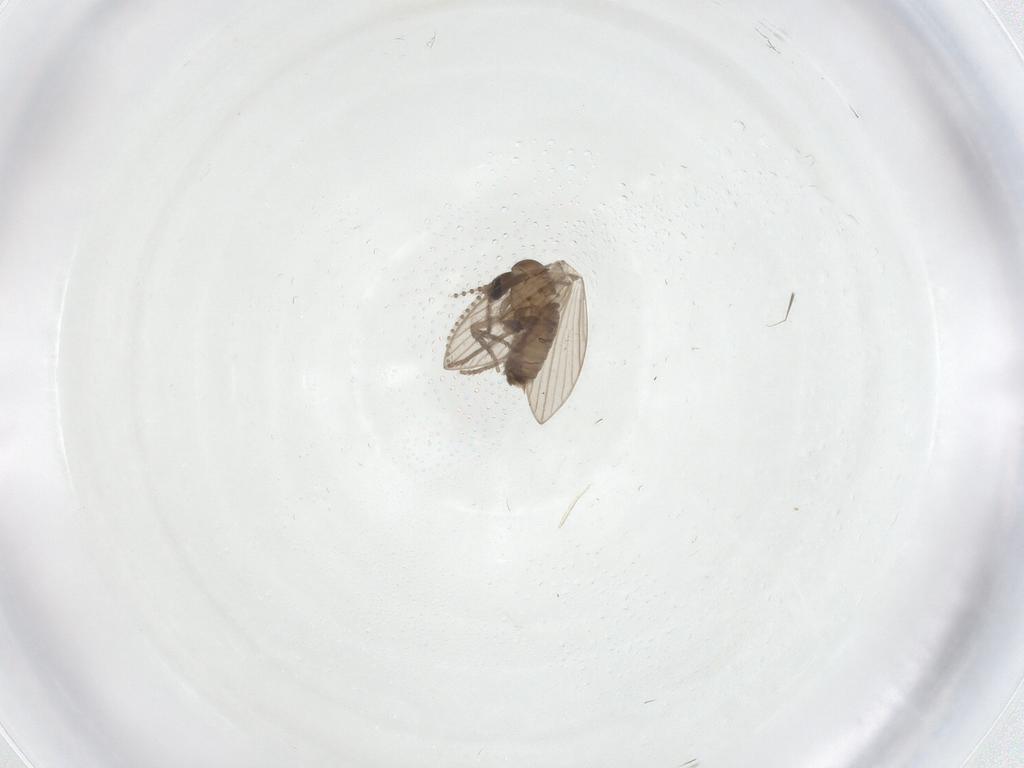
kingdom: Animalia
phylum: Arthropoda
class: Insecta
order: Diptera
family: Psychodidae
